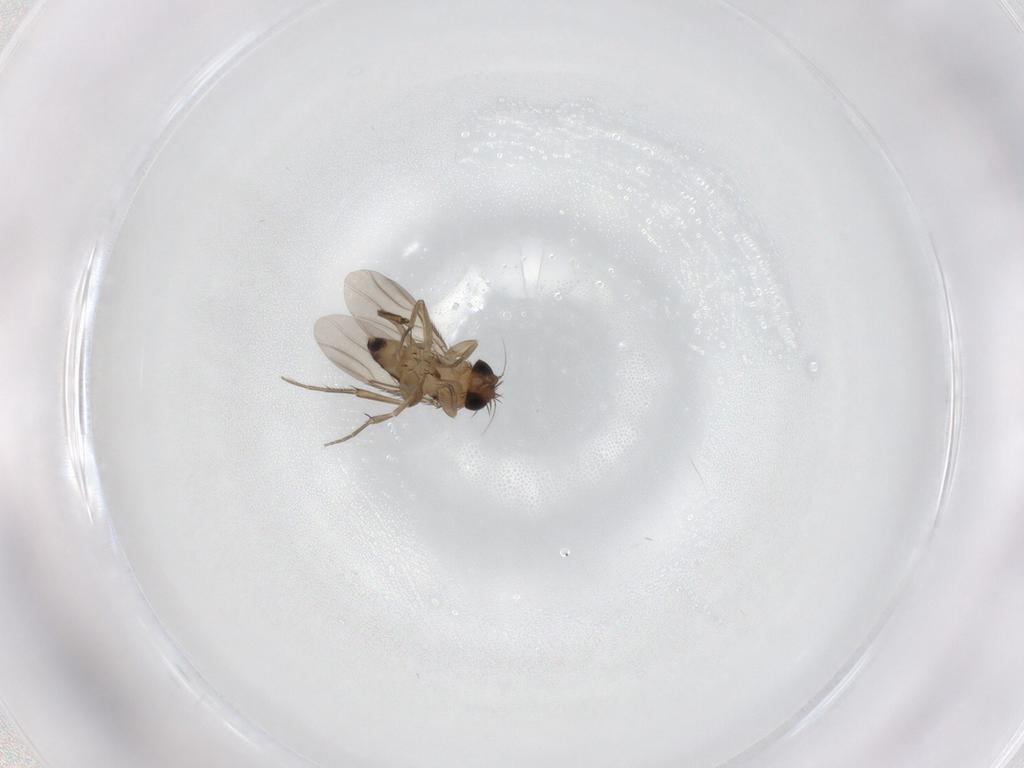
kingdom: Animalia
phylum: Arthropoda
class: Insecta
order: Diptera
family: Phoridae
